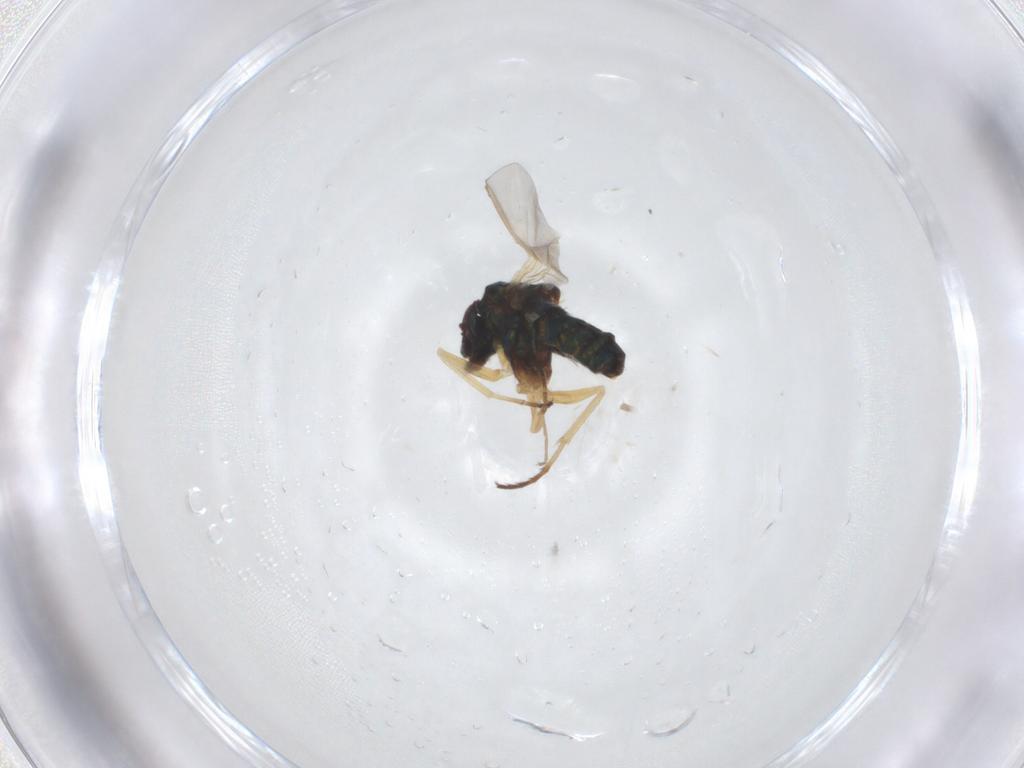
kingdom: Animalia
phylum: Arthropoda
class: Insecta
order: Diptera
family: Dolichopodidae
